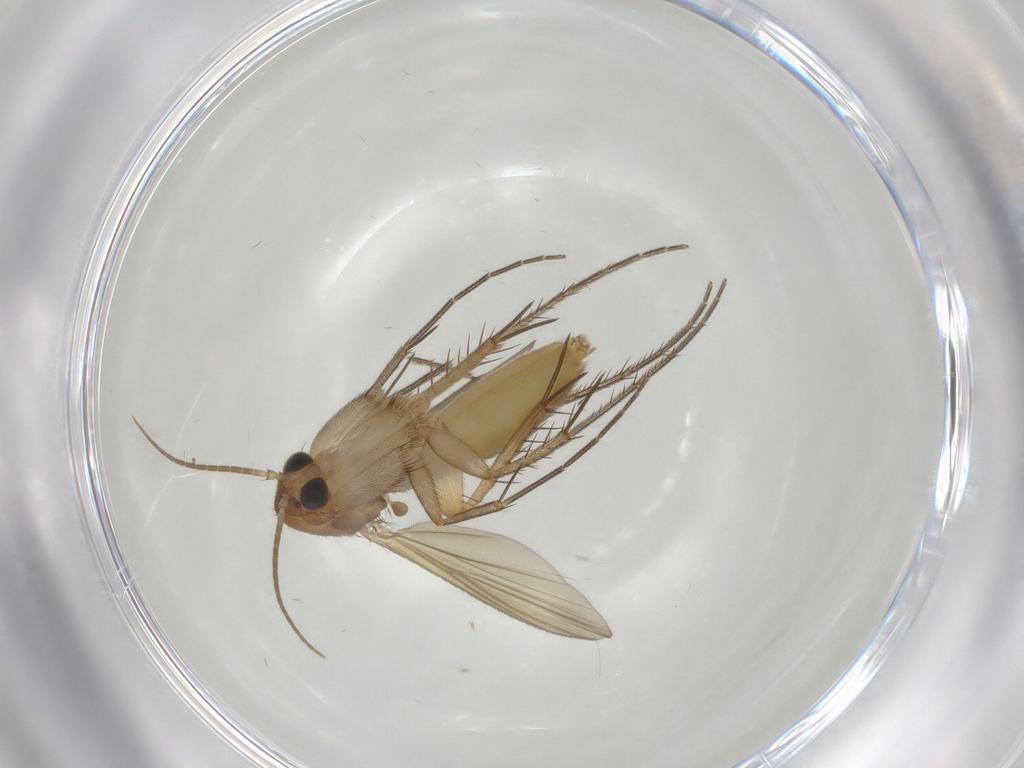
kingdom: Animalia
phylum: Arthropoda
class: Insecta
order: Diptera
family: Mycetophilidae
